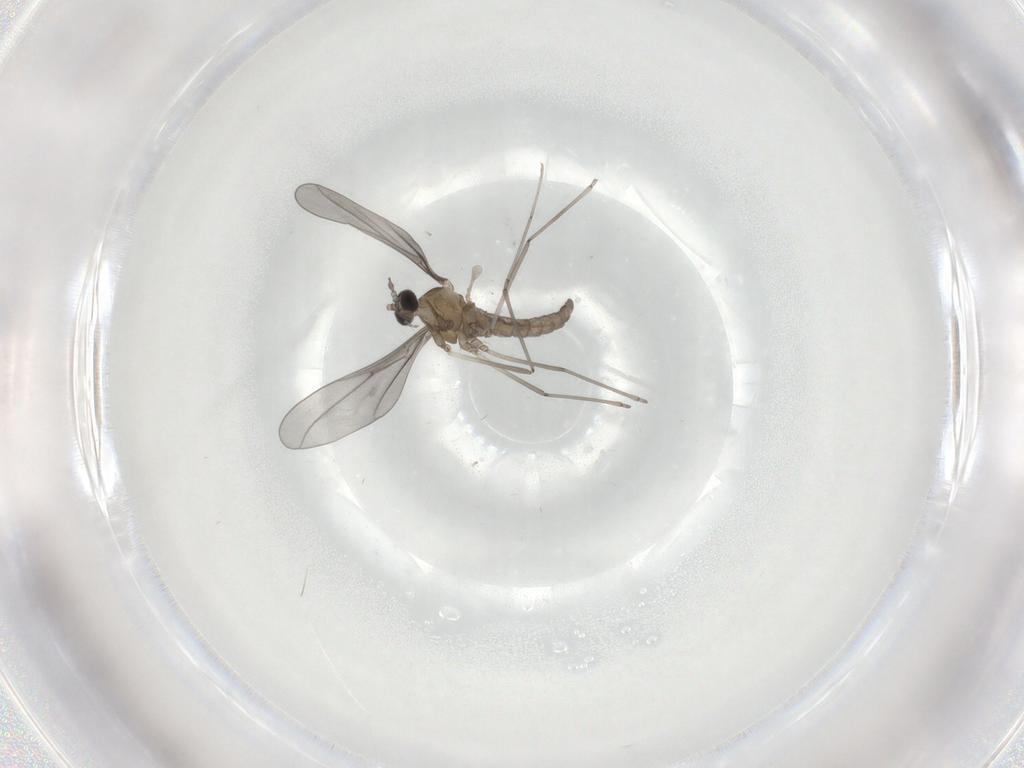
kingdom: Animalia
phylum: Arthropoda
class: Insecta
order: Diptera
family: Cecidomyiidae
